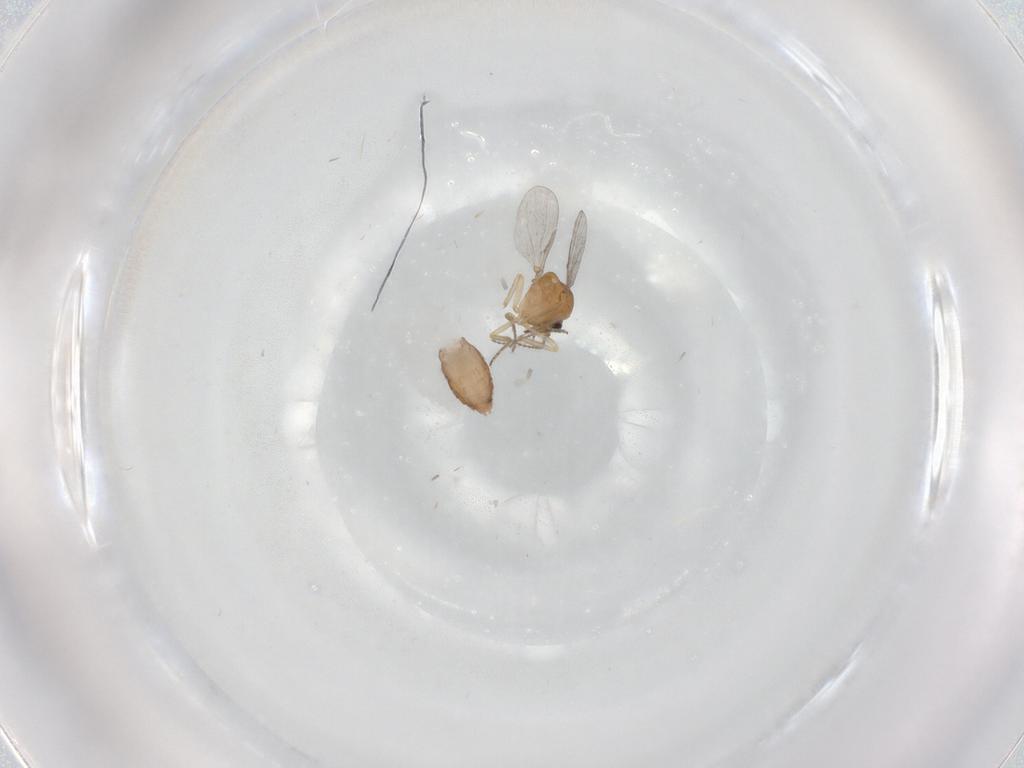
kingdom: Animalia
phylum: Arthropoda
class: Insecta
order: Diptera
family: Ceratopogonidae
